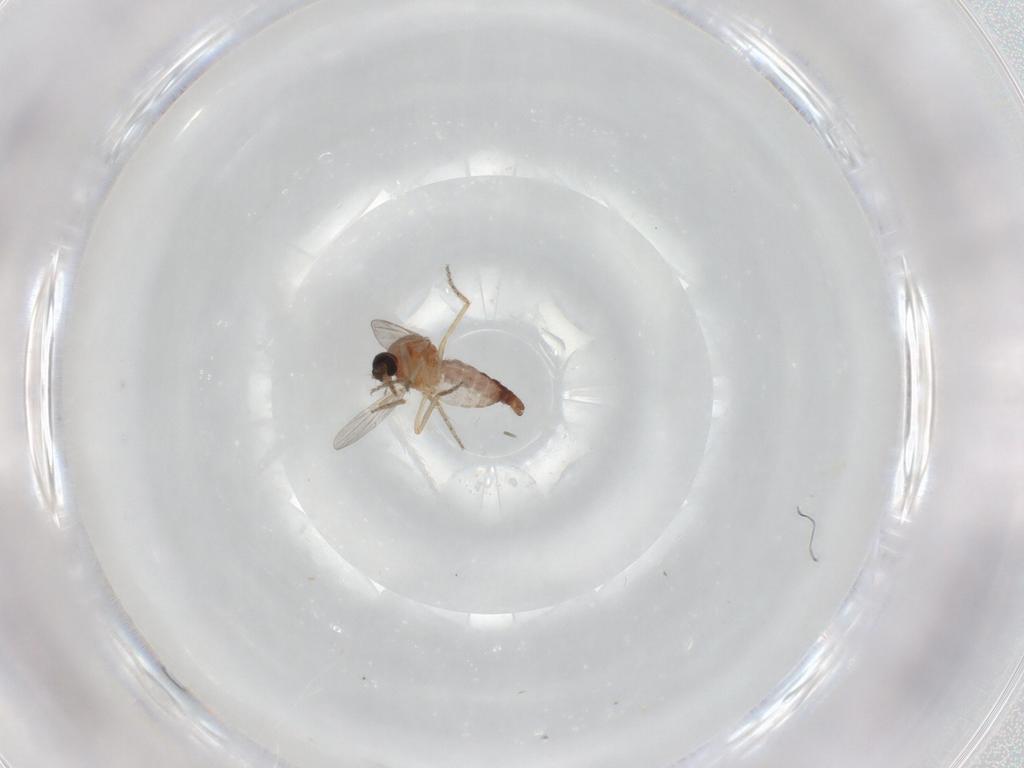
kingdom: Animalia
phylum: Arthropoda
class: Insecta
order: Diptera
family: Ceratopogonidae
